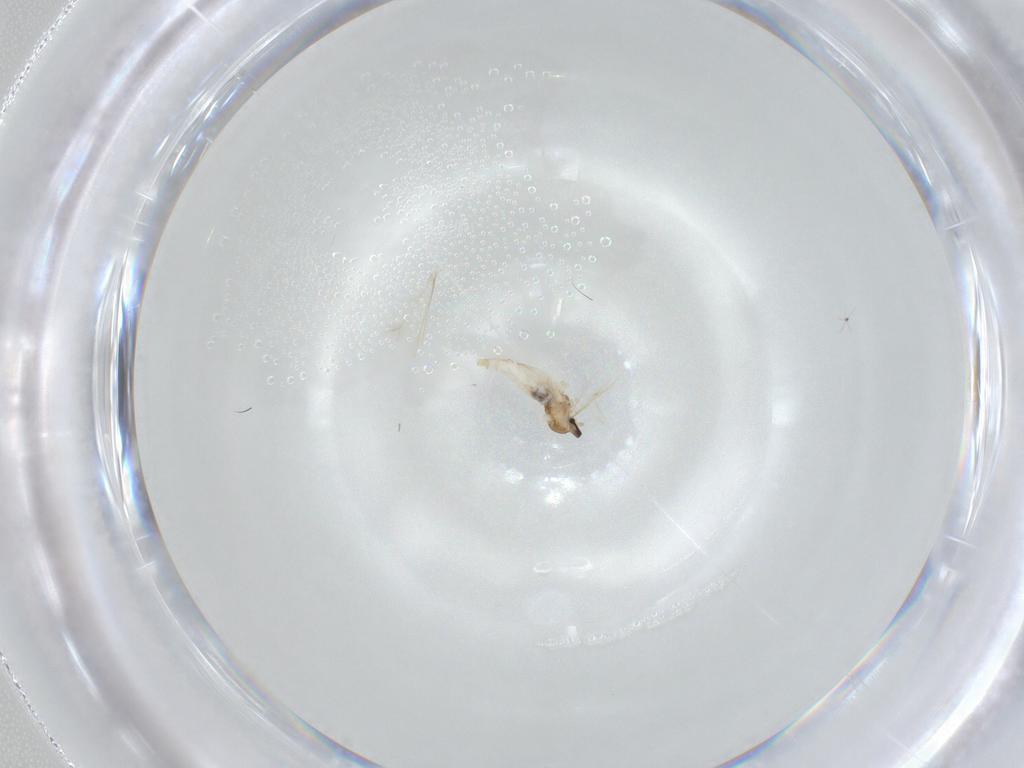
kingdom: Animalia
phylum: Arthropoda
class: Insecta
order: Diptera
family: Cecidomyiidae
